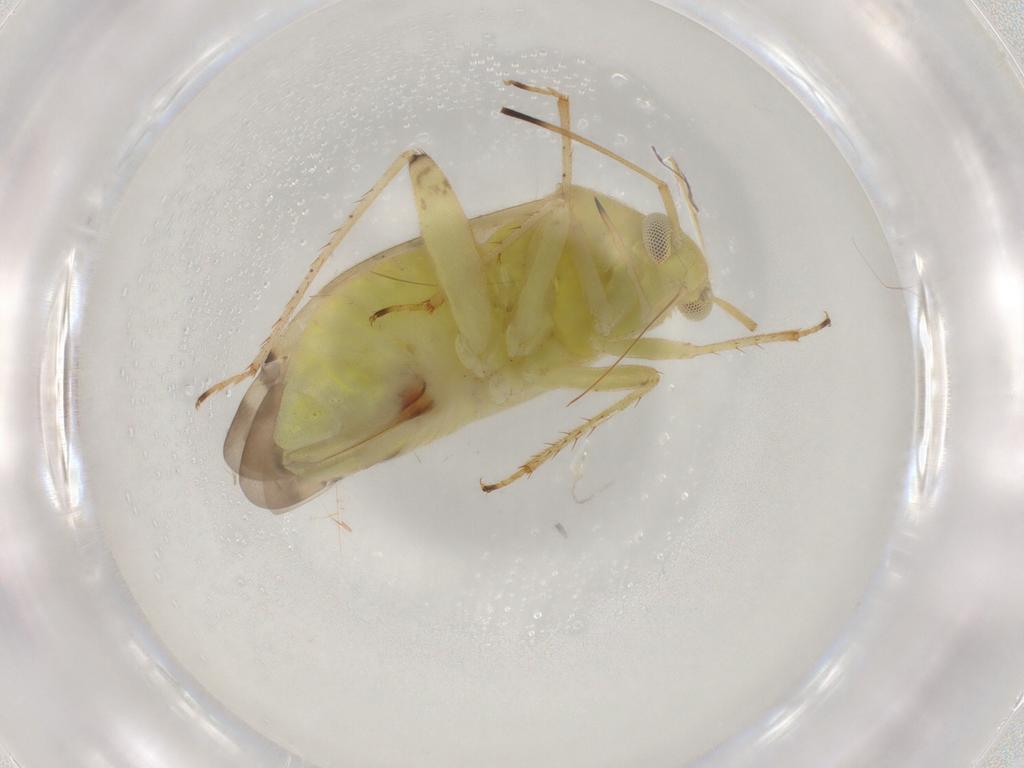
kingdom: Animalia
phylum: Arthropoda
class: Insecta
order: Hemiptera
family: Miridae
